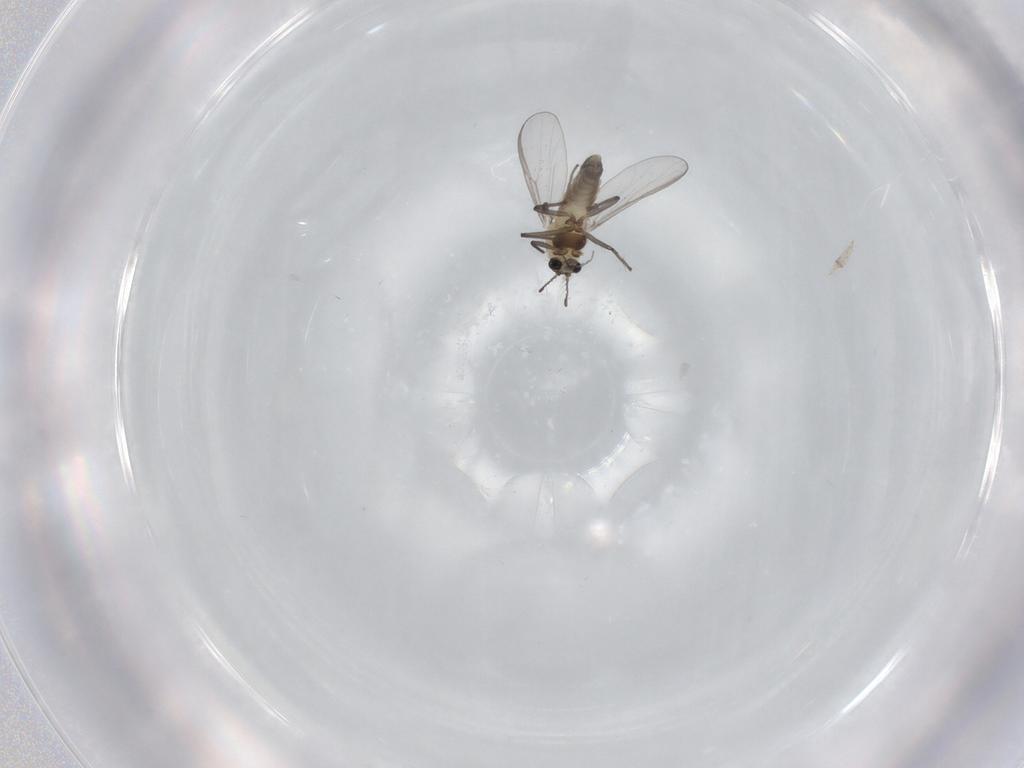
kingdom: Animalia
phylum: Arthropoda
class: Insecta
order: Diptera
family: Chironomidae
